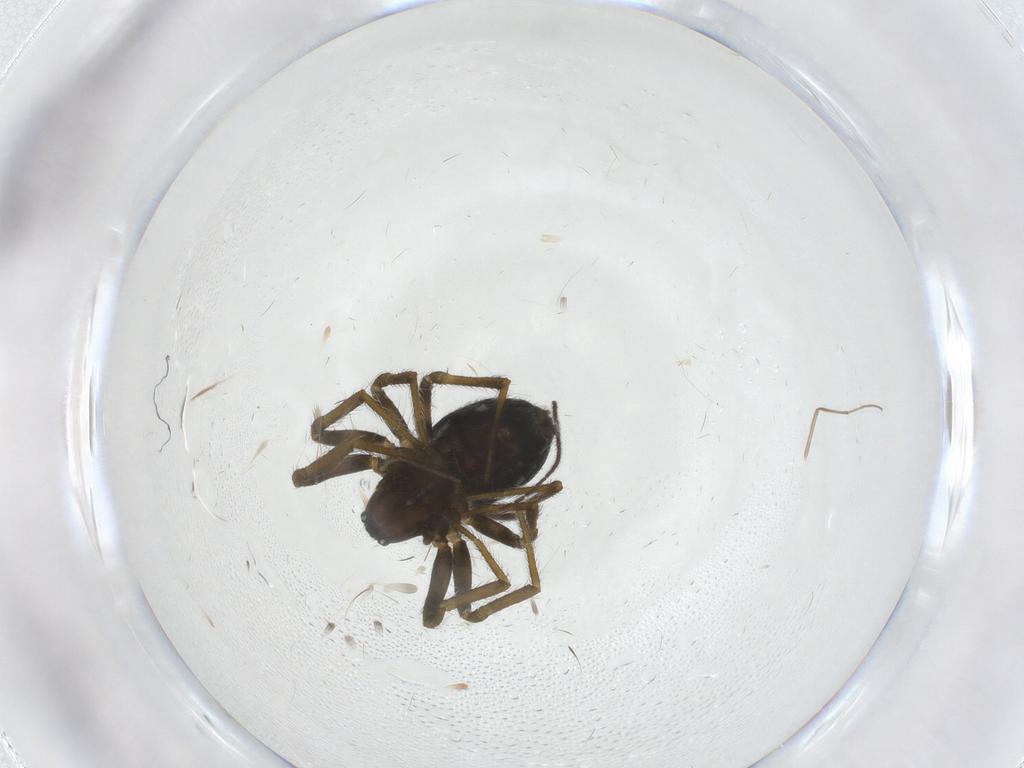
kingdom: Animalia
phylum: Arthropoda
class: Arachnida
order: Araneae
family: Theridiidae
